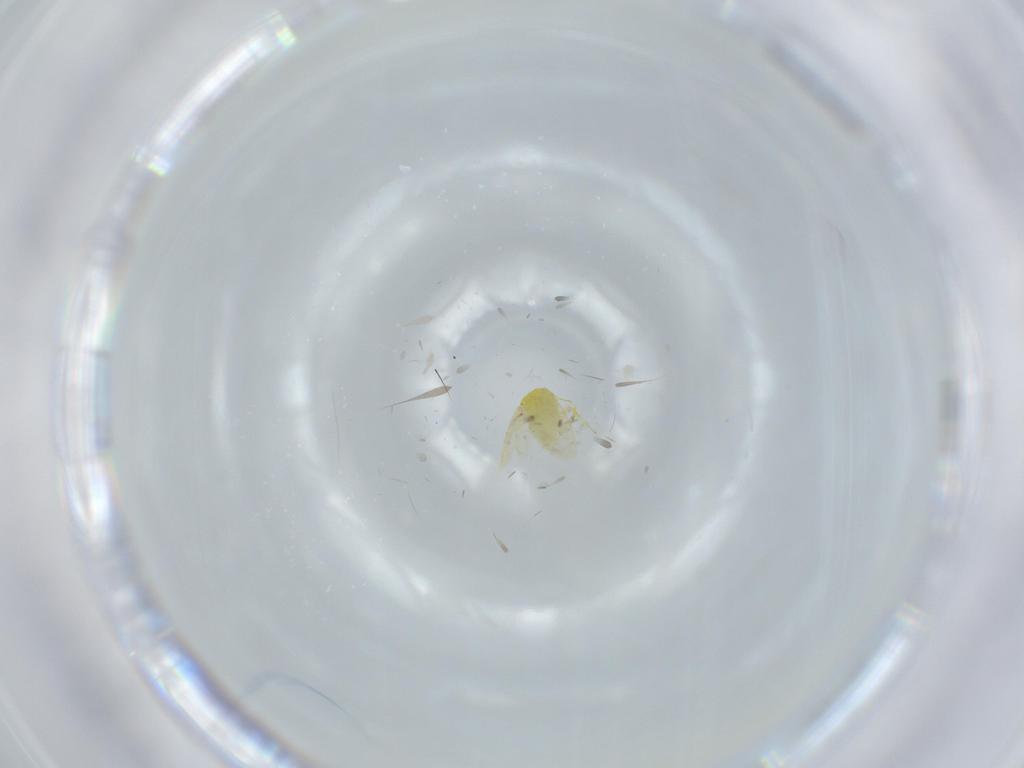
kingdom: Animalia
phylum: Arthropoda
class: Insecta
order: Hemiptera
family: Aleyrodidae
